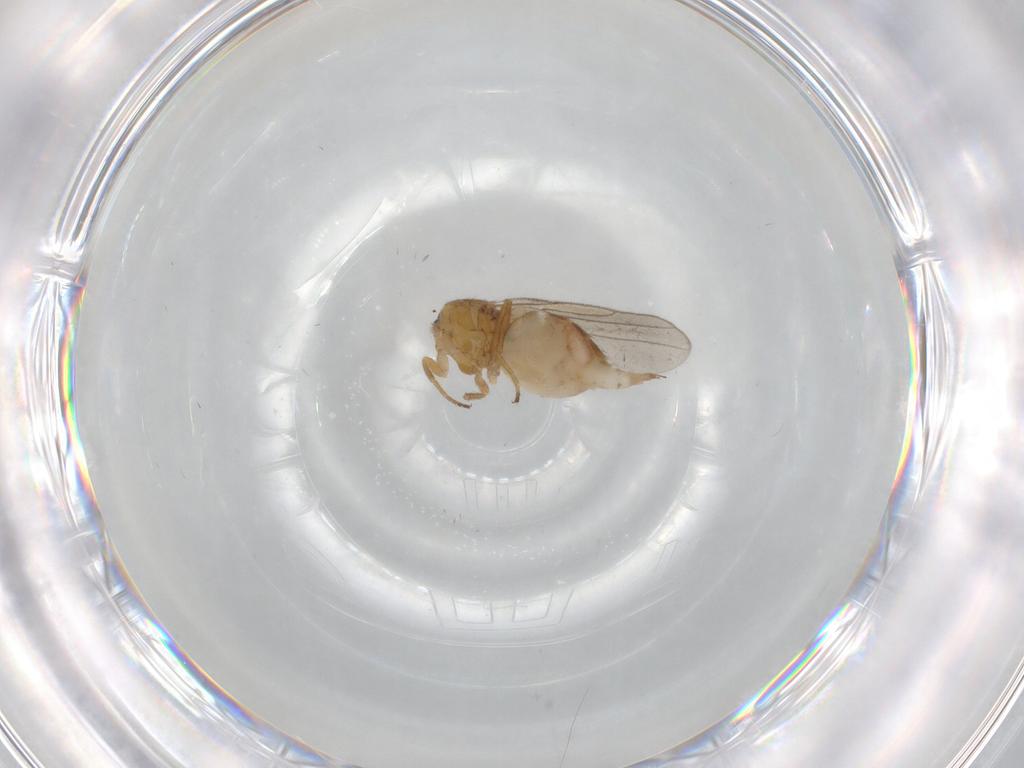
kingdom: Animalia
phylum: Arthropoda
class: Insecta
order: Diptera
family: Chloropidae
